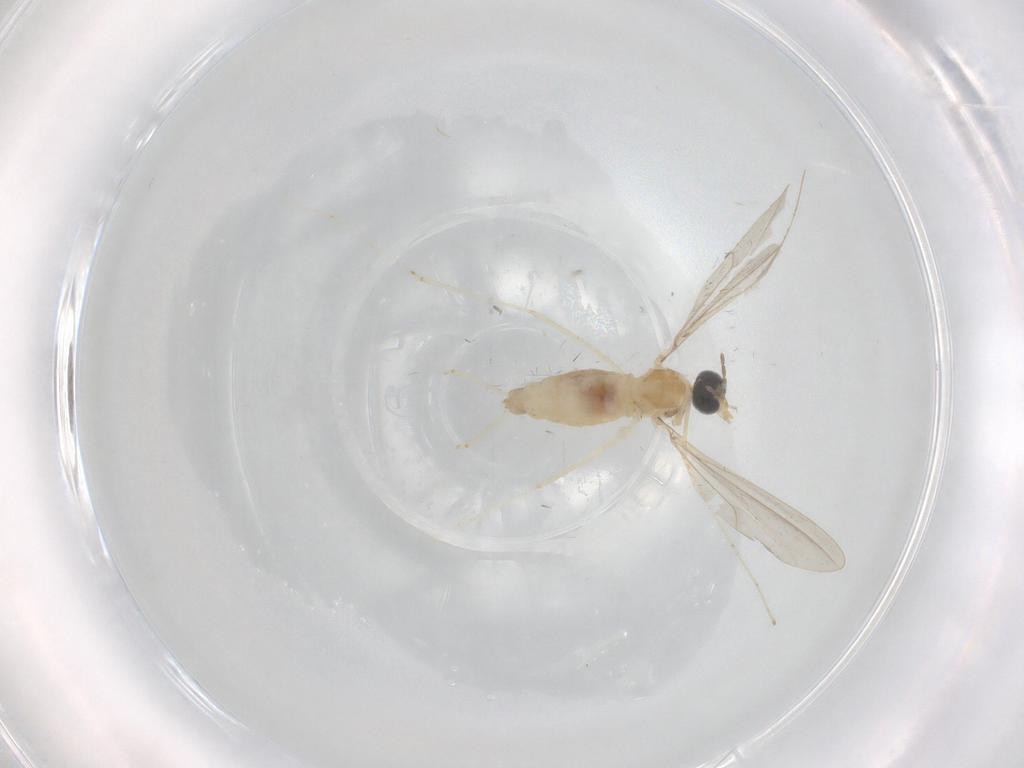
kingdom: Animalia
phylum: Arthropoda
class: Insecta
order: Diptera
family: Cecidomyiidae
